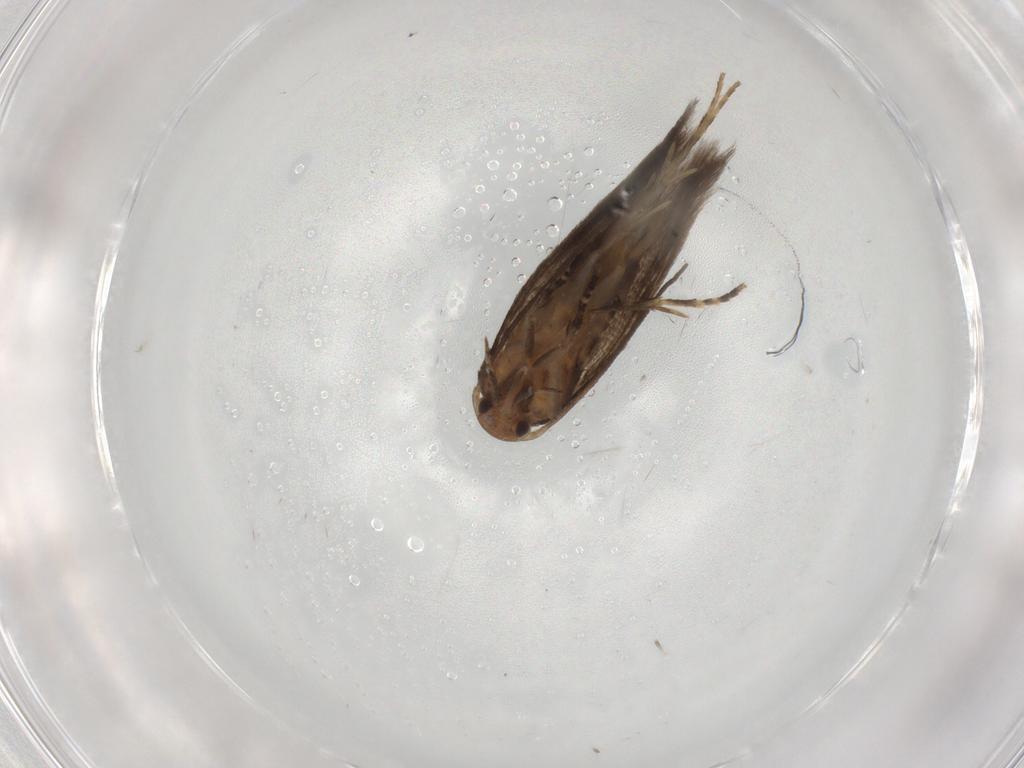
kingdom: Animalia
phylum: Arthropoda
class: Insecta
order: Lepidoptera
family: Elachistidae
